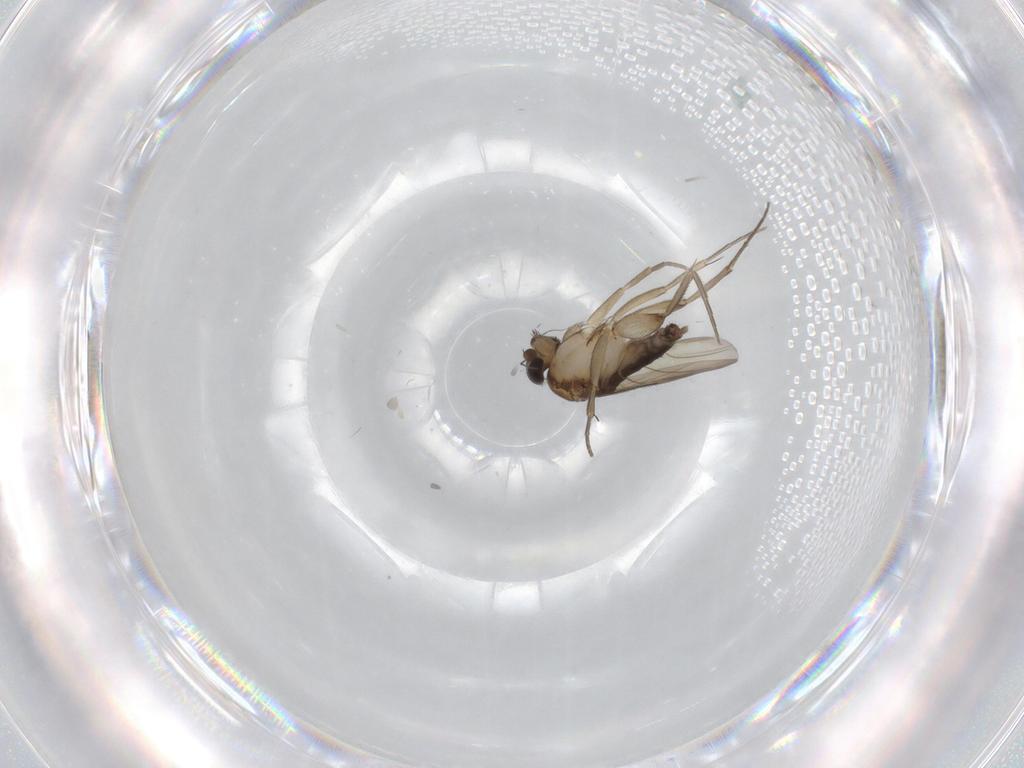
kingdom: Animalia
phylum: Arthropoda
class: Insecta
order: Diptera
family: Phoridae
